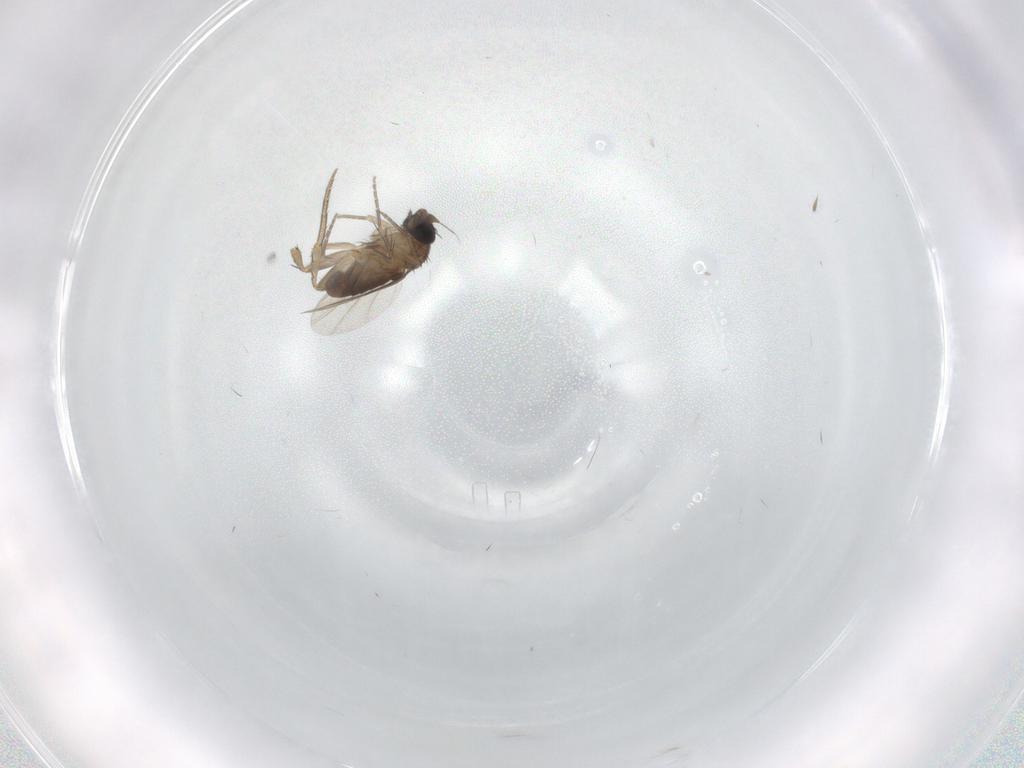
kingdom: Animalia
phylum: Arthropoda
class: Insecta
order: Diptera
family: Phoridae
